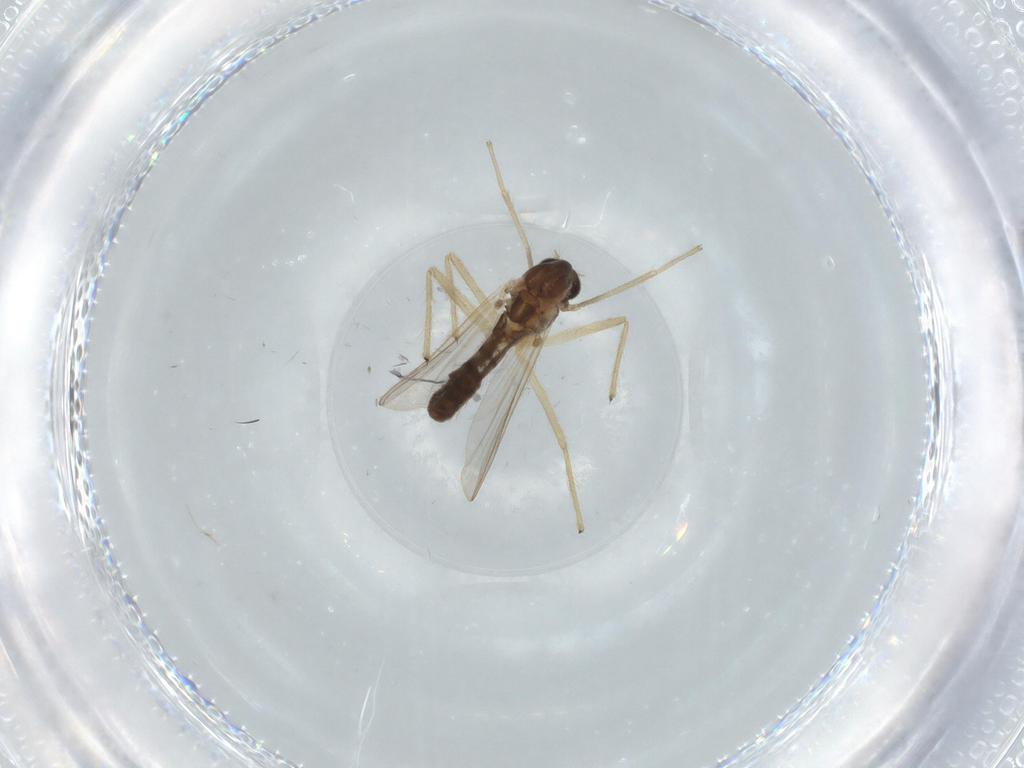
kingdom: Animalia
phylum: Arthropoda
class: Insecta
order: Diptera
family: Chironomidae
